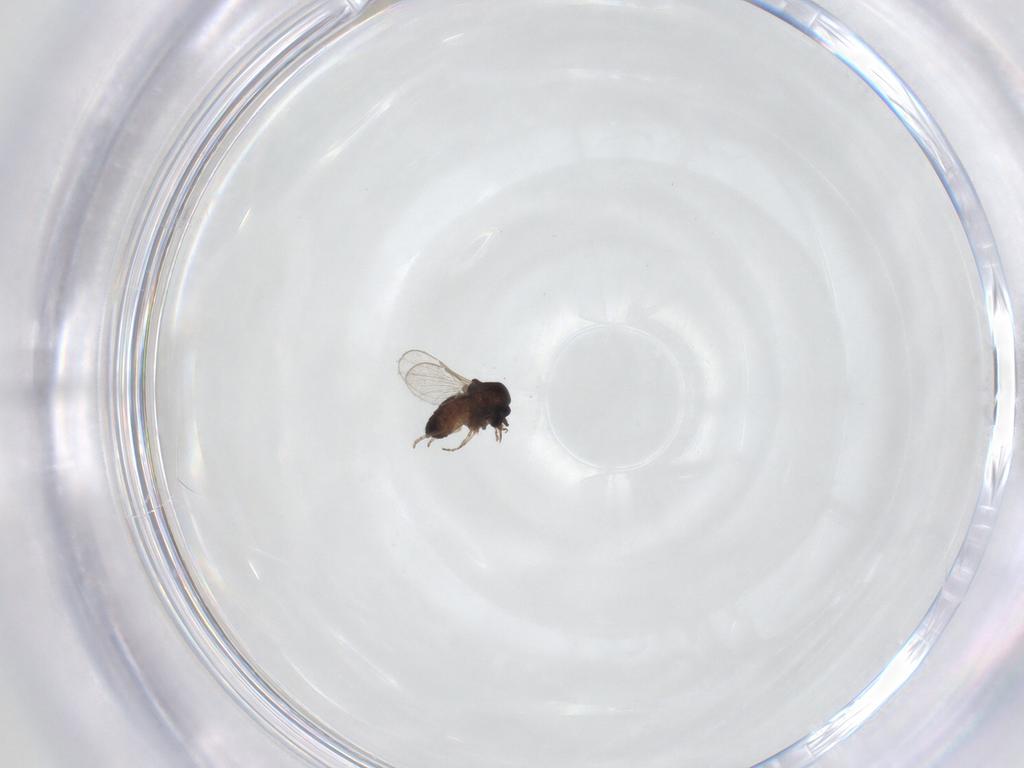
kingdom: Animalia
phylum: Arthropoda
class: Insecta
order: Diptera
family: Ceratopogonidae
